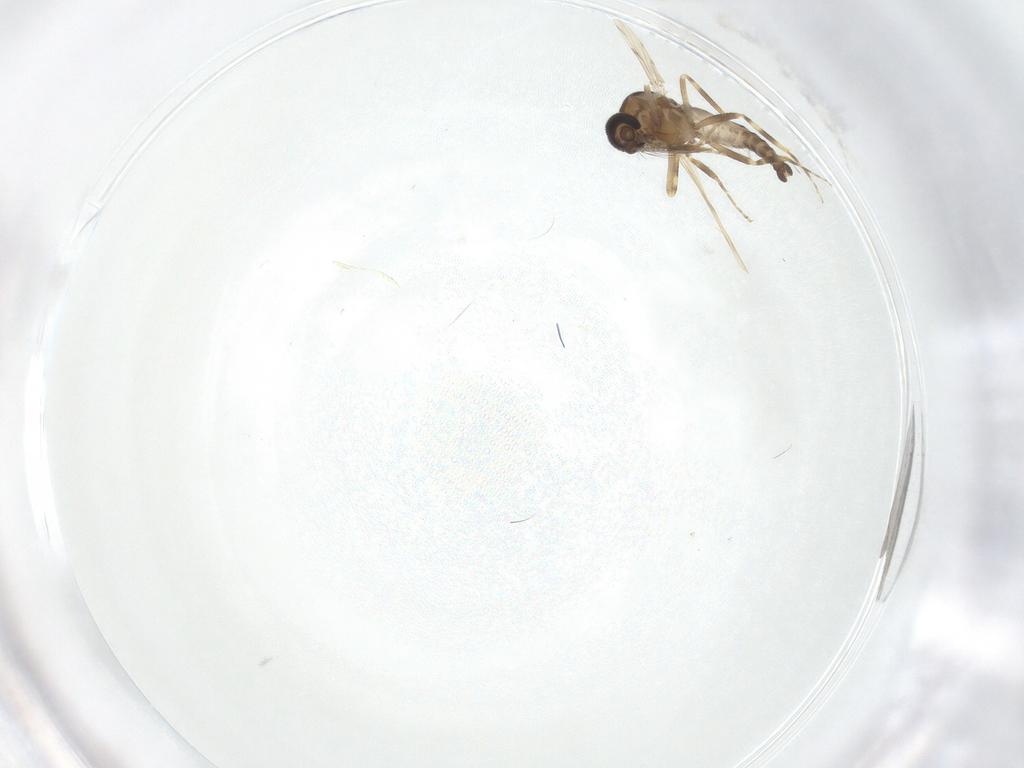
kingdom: Animalia
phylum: Arthropoda
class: Insecta
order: Diptera
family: Ceratopogonidae
